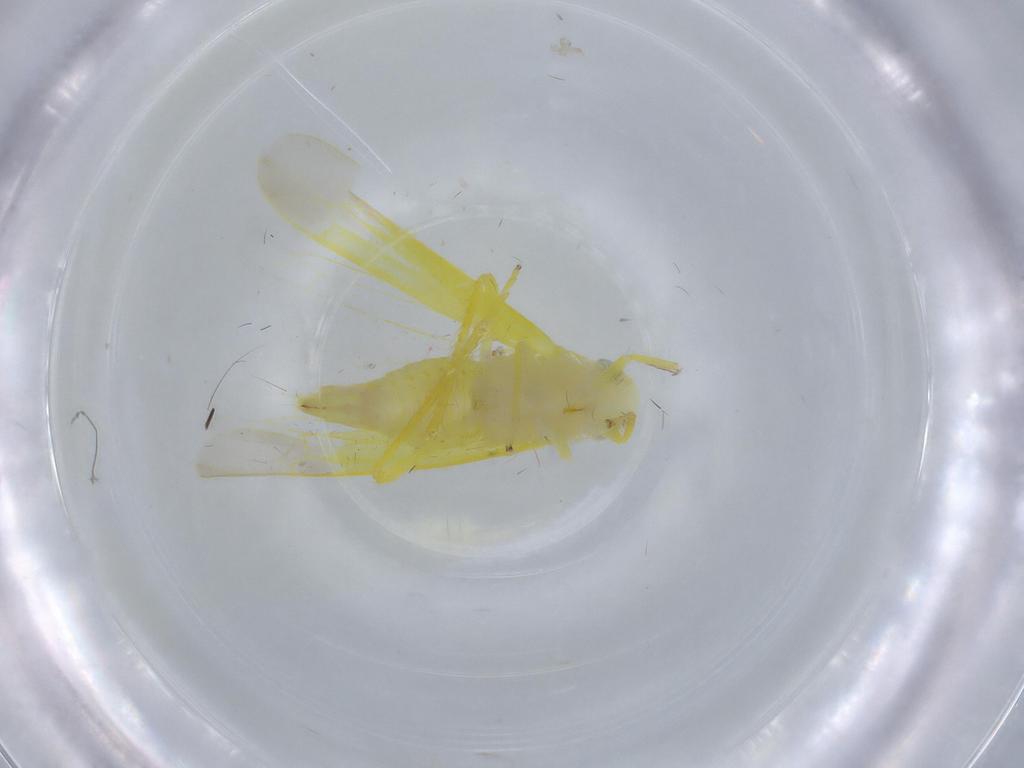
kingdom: Animalia
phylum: Arthropoda
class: Insecta
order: Hemiptera
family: Cicadellidae
